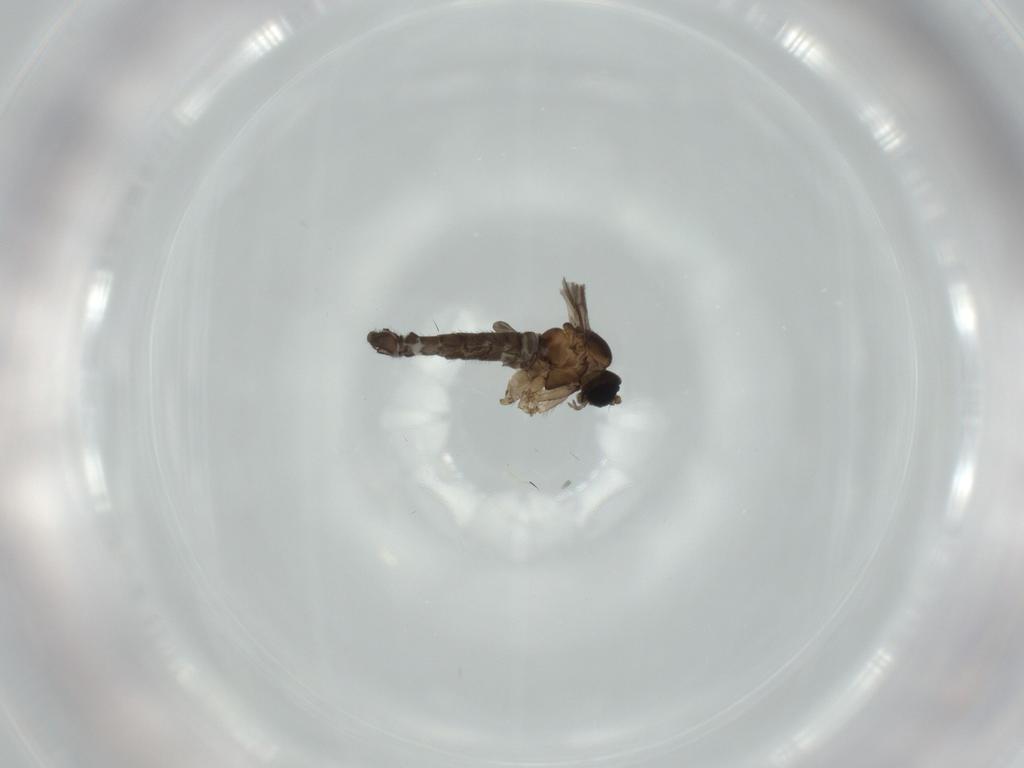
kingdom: Animalia
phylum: Arthropoda
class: Insecta
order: Diptera
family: Sciaridae
